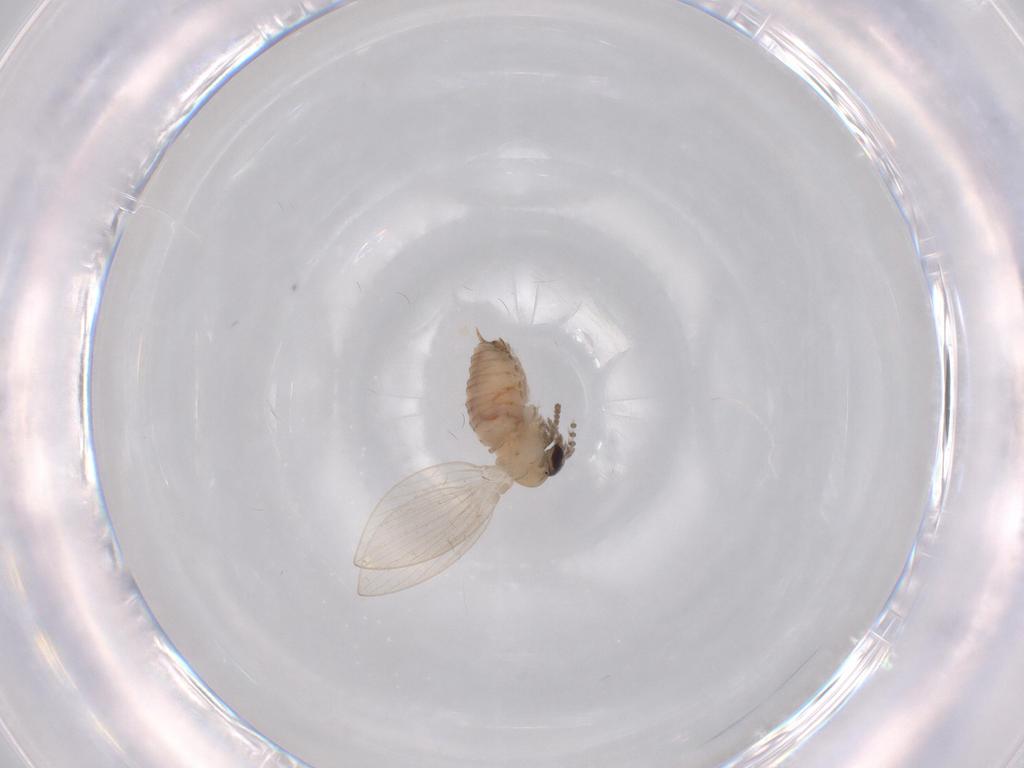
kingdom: Animalia
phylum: Arthropoda
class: Insecta
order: Diptera
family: Psychodidae
